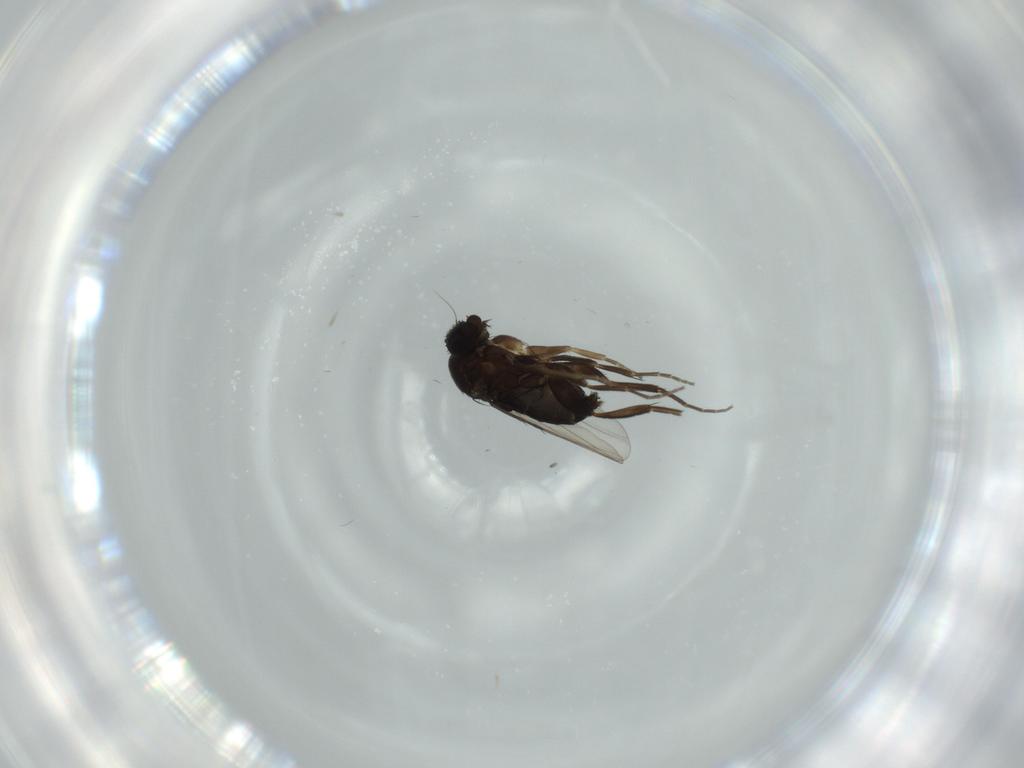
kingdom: Animalia
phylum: Arthropoda
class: Insecta
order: Diptera
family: Phoridae
